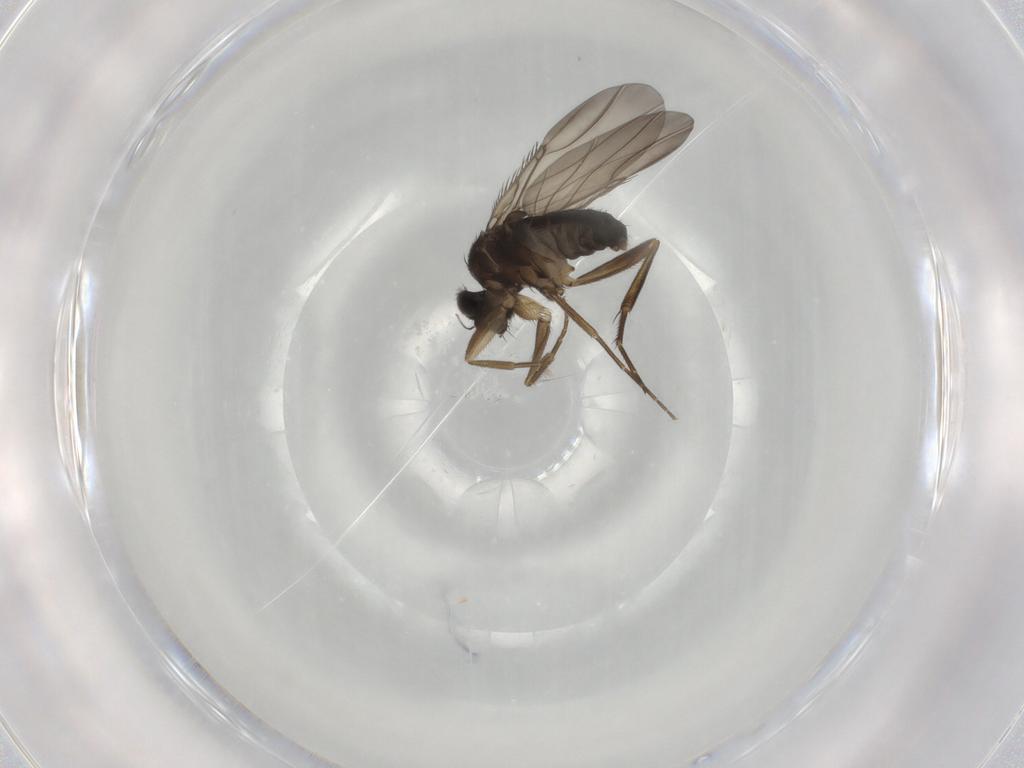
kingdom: Animalia
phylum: Arthropoda
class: Insecta
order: Diptera
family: Phoridae
